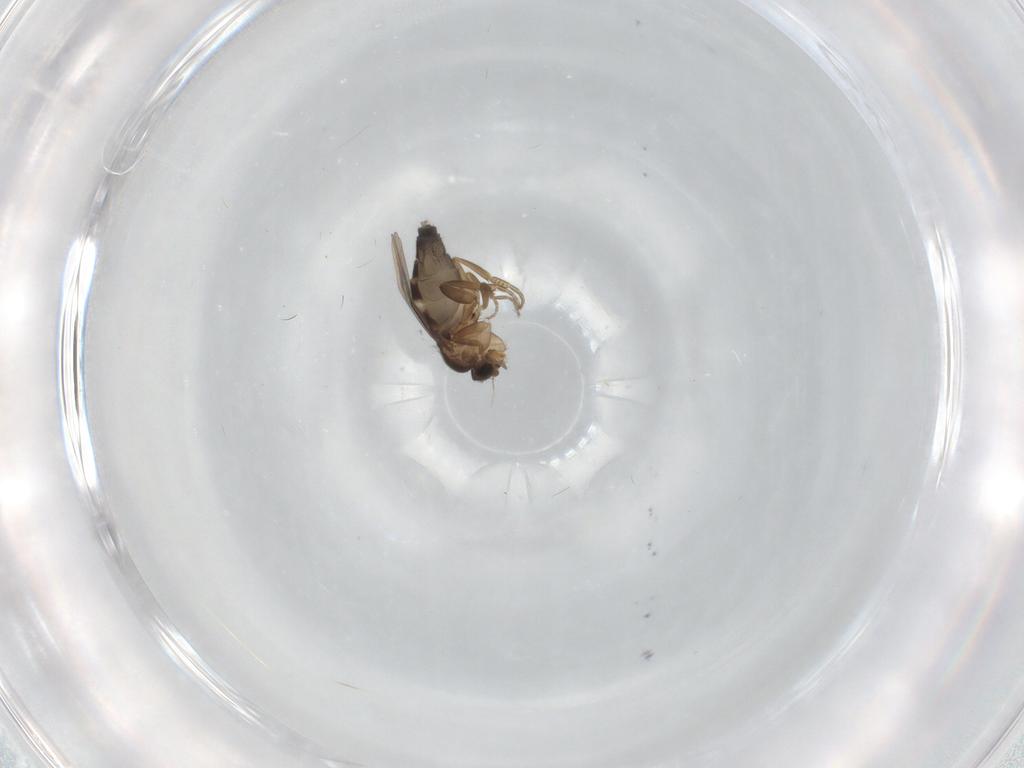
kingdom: Animalia
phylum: Arthropoda
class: Insecta
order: Diptera
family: Phoridae
